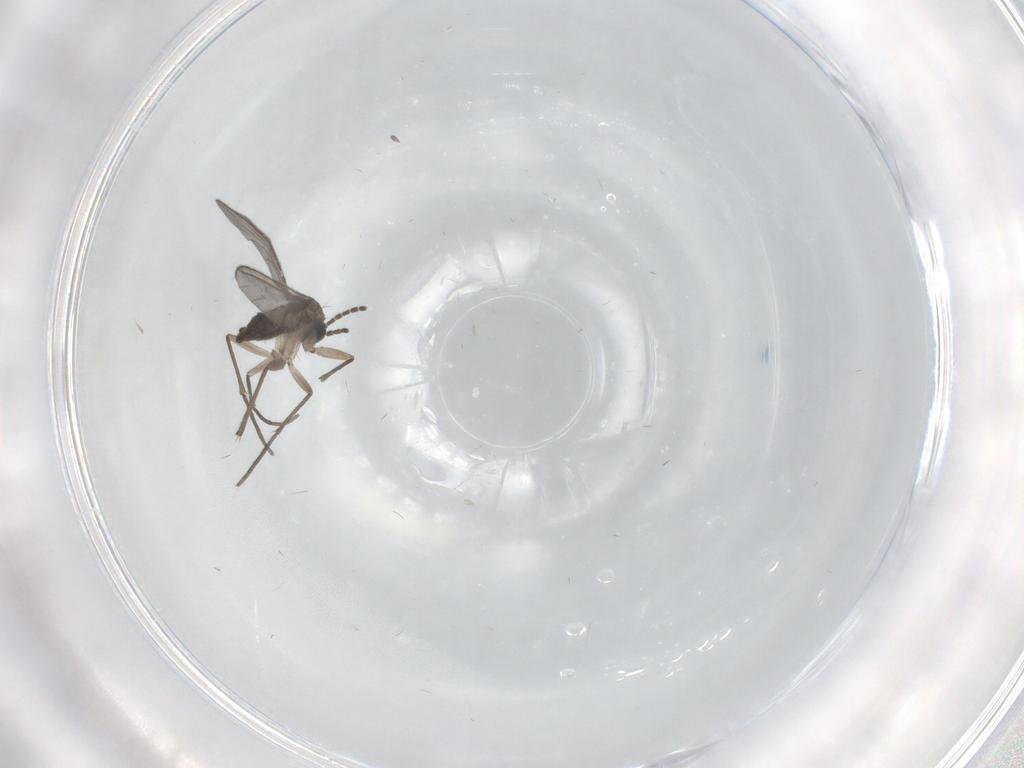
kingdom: Animalia
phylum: Arthropoda
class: Insecta
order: Diptera
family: Sciaridae
